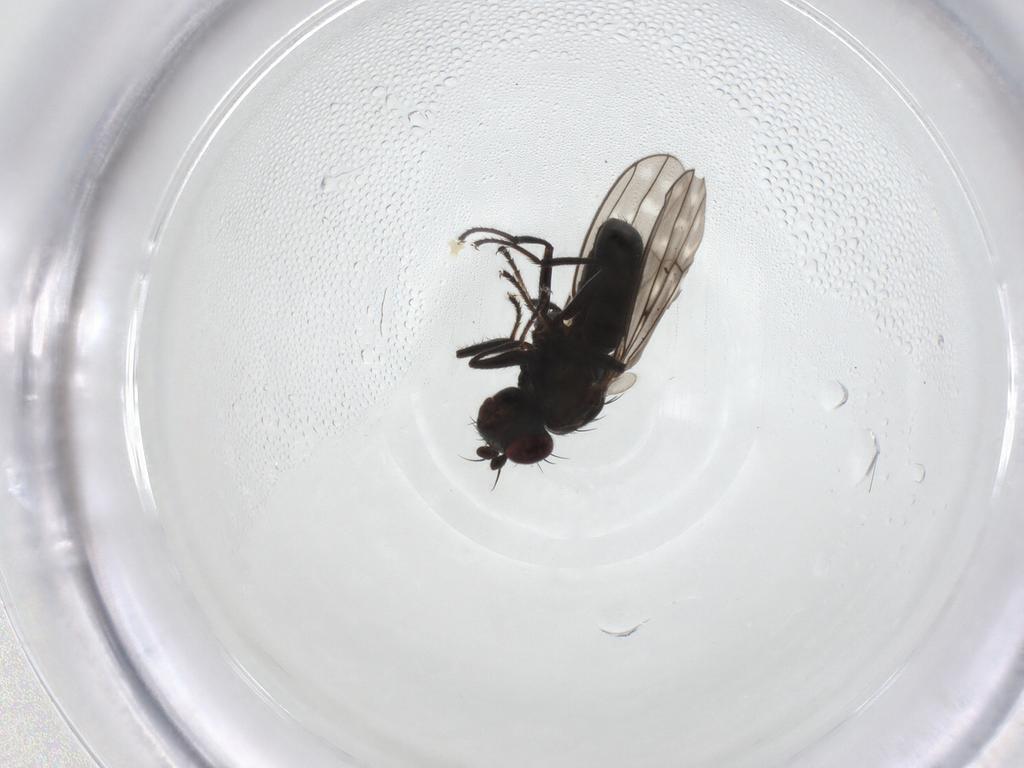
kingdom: Animalia
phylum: Arthropoda
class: Insecta
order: Diptera
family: Ephydridae
